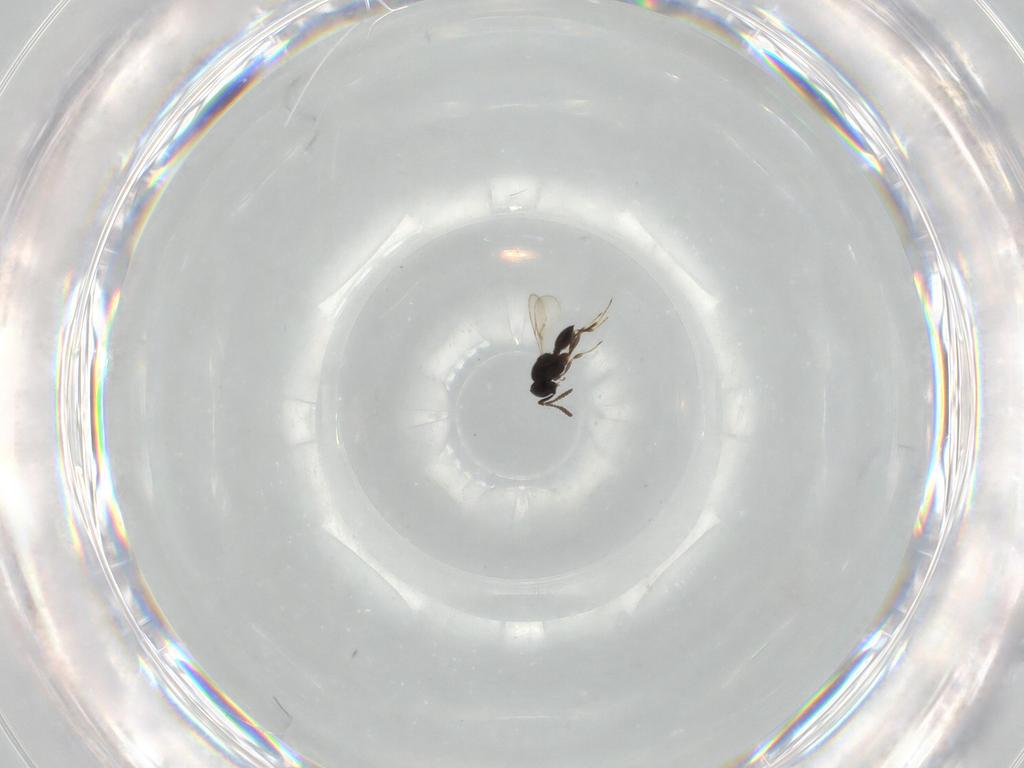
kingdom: Animalia
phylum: Arthropoda
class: Insecta
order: Hymenoptera
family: Scelionidae
